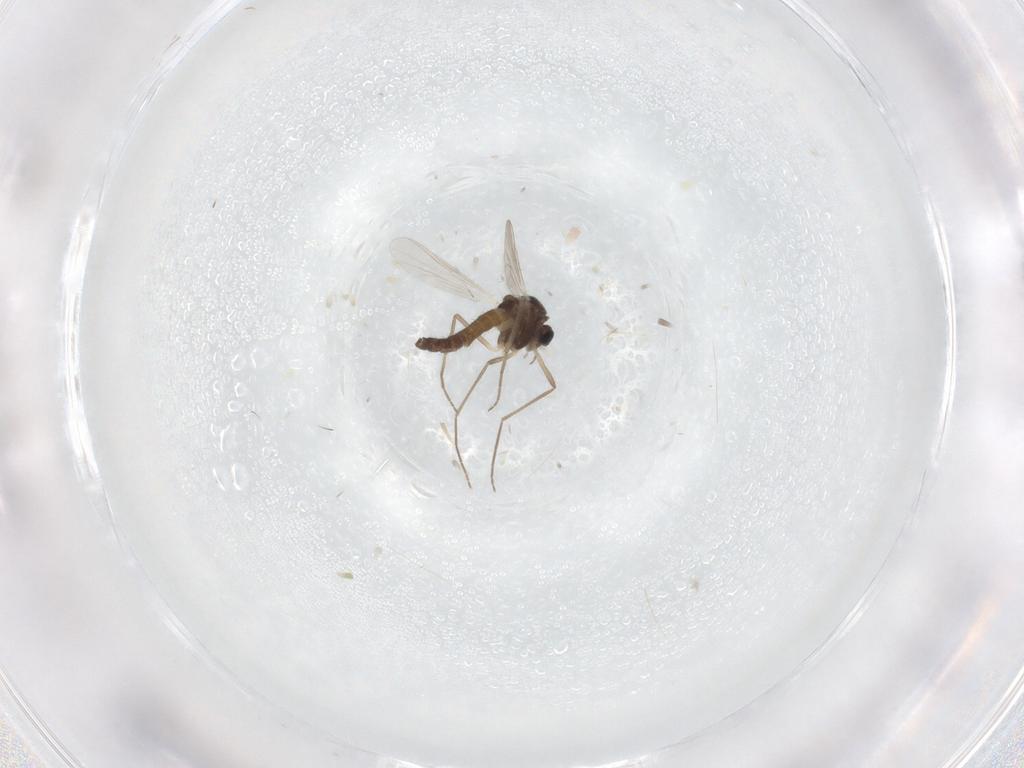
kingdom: Animalia
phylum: Arthropoda
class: Insecta
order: Diptera
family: Chironomidae
